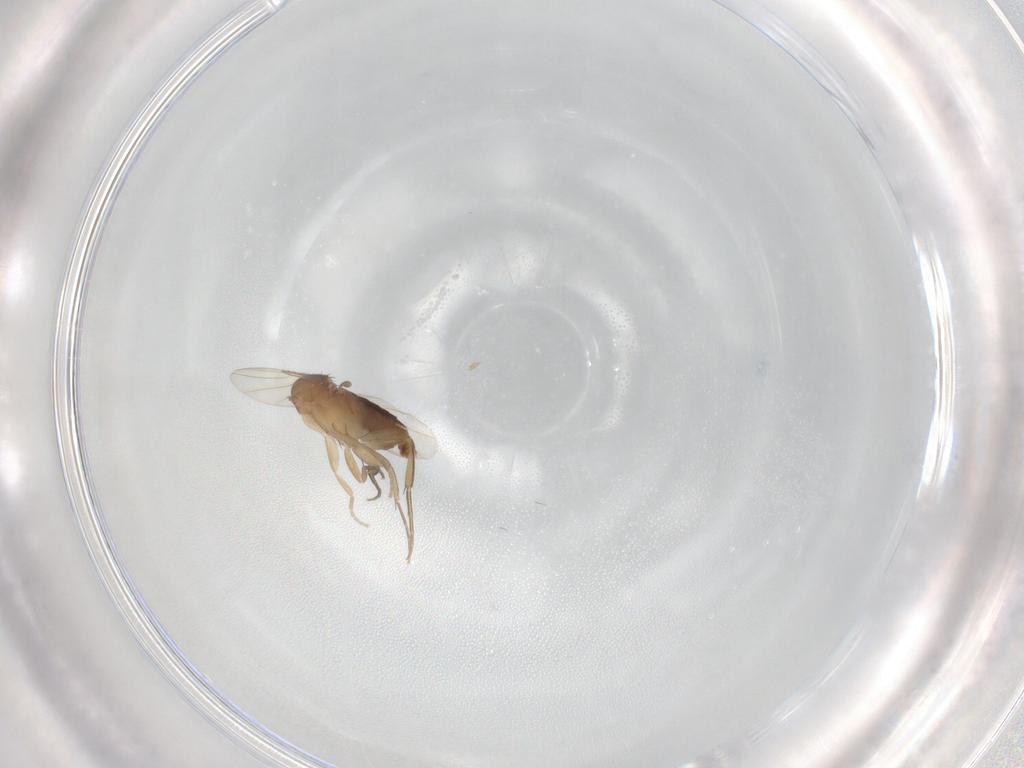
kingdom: Animalia
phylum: Arthropoda
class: Insecta
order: Diptera
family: Phoridae
